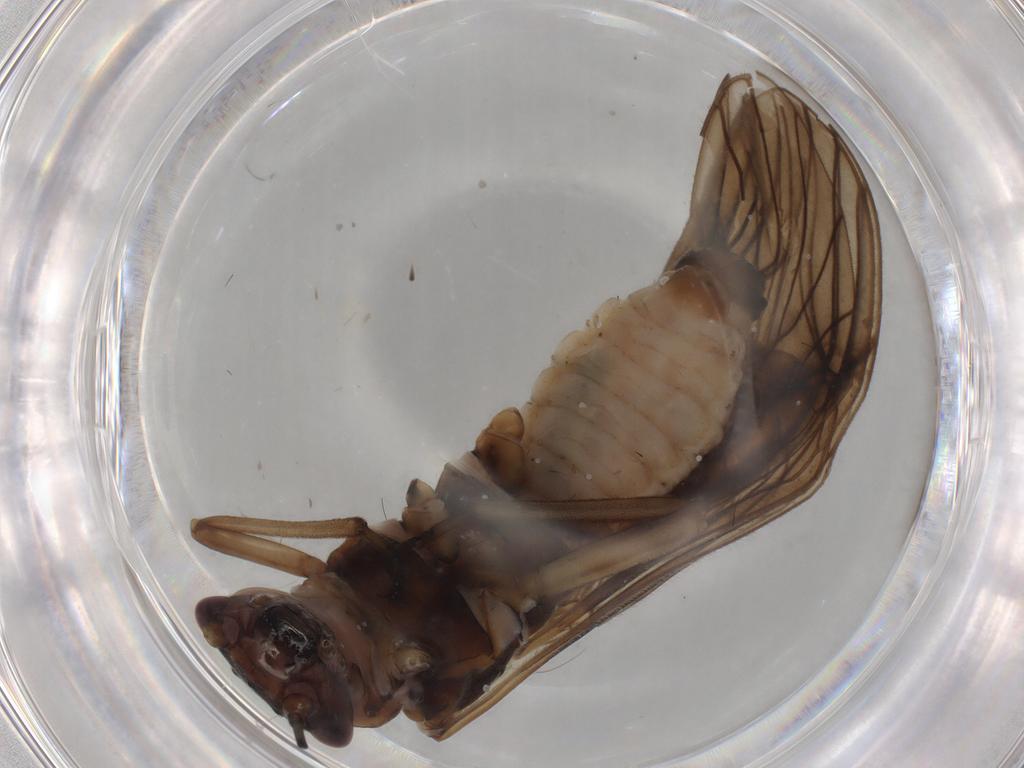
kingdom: Animalia
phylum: Arthropoda
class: Insecta
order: Plecoptera
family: Nemouridae
